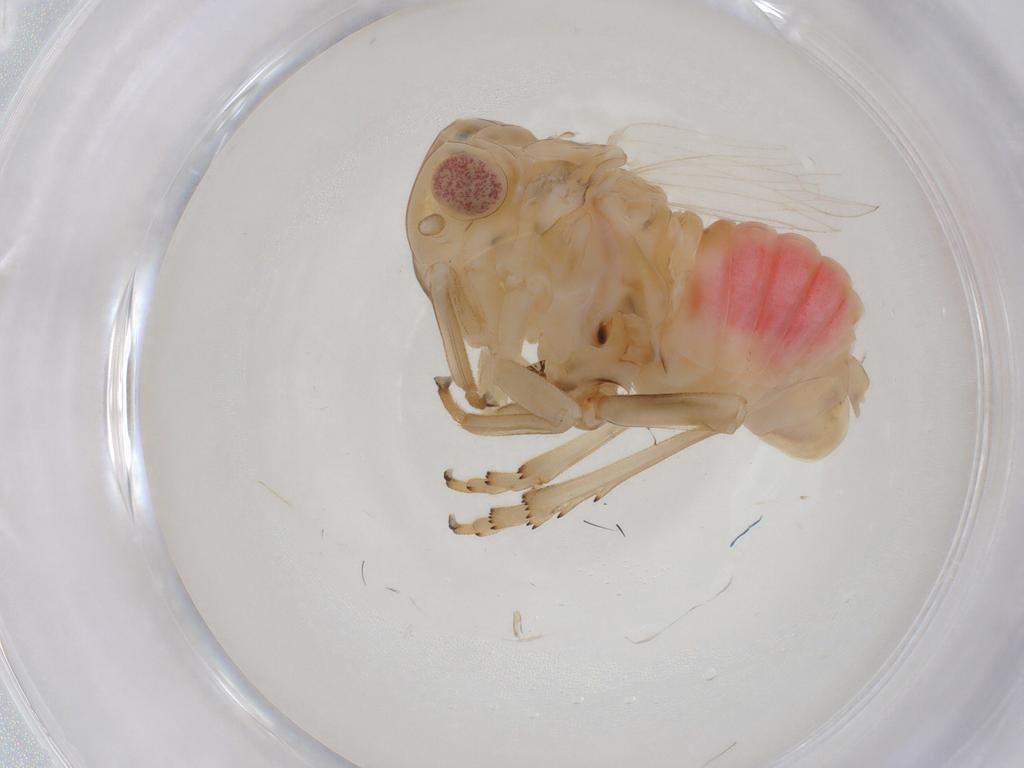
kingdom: Animalia
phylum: Arthropoda
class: Insecta
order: Hemiptera
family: Tropiduchidae
